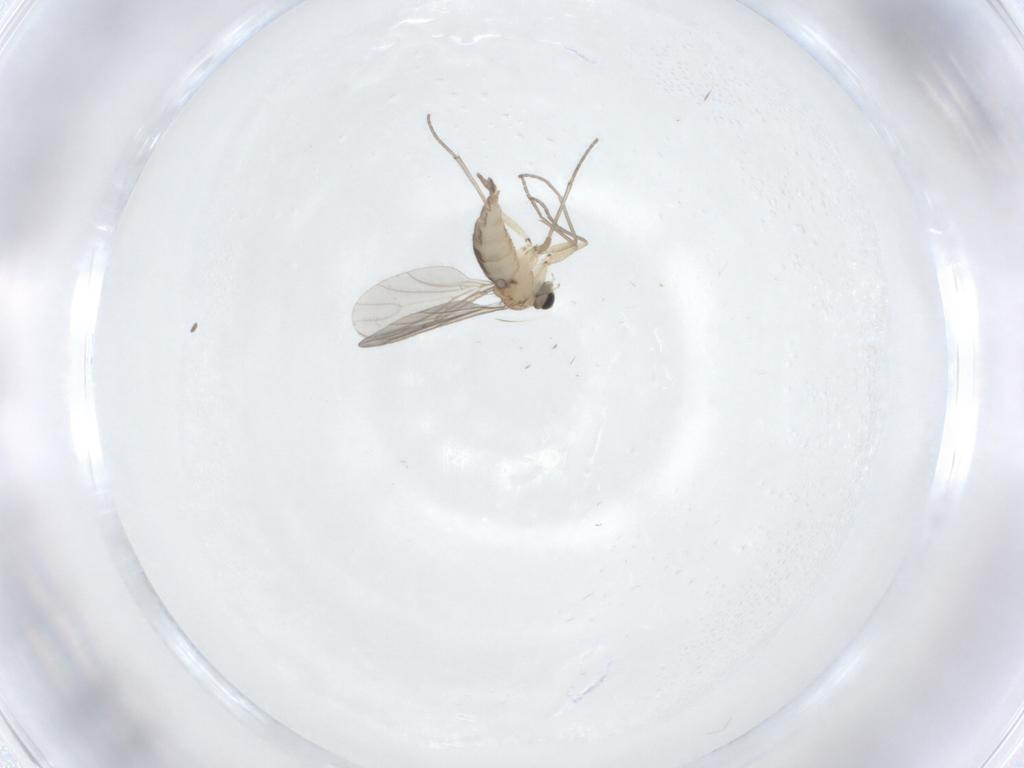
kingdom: Animalia
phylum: Arthropoda
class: Insecta
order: Diptera
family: Sciaridae
